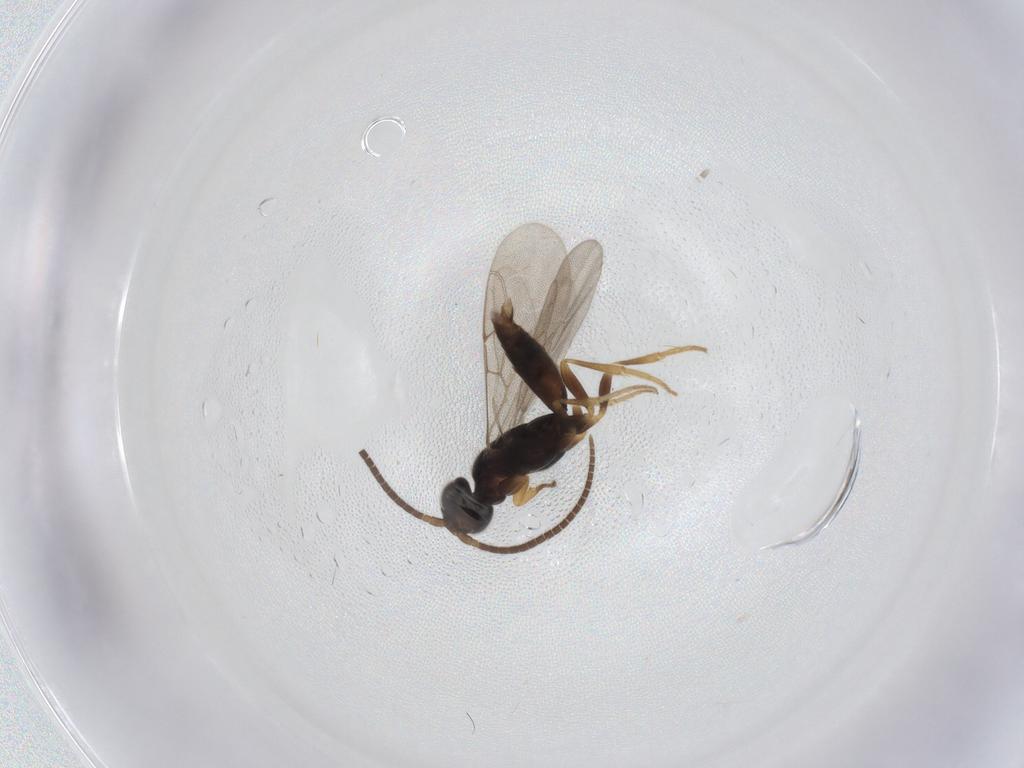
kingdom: Animalia
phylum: Arthropoda
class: Insecta
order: Hymenoptera
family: Sclerogibbidae
